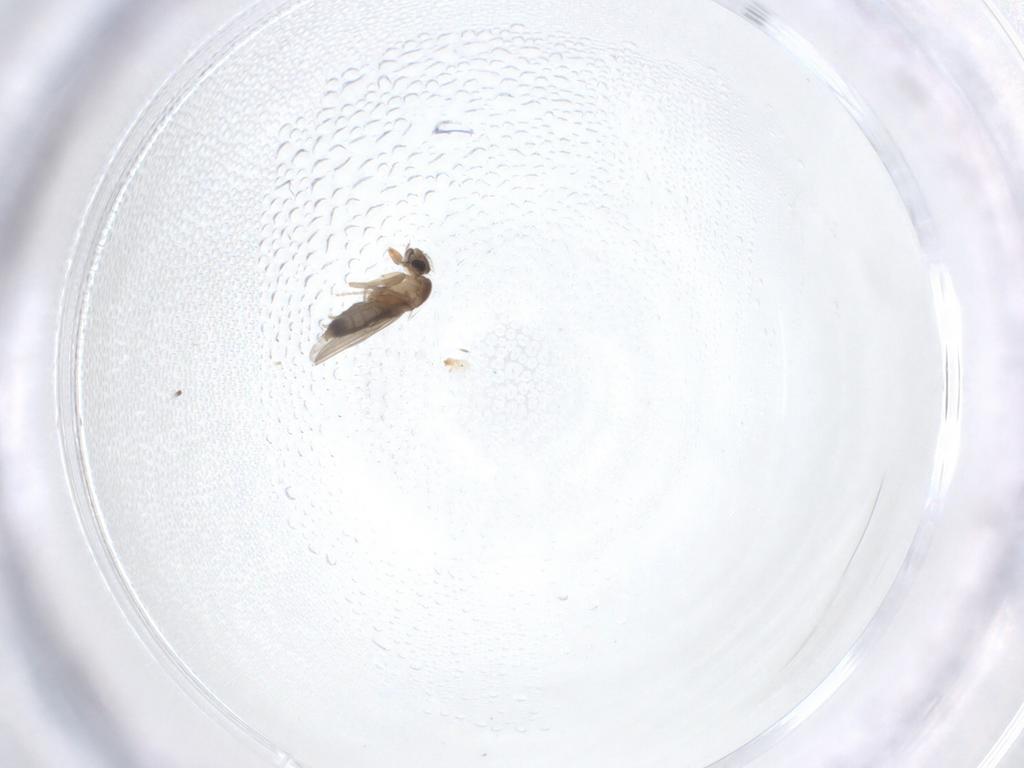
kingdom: Animalia
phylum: Arthropoda
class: Insecta
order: Diptera
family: Phoridae
